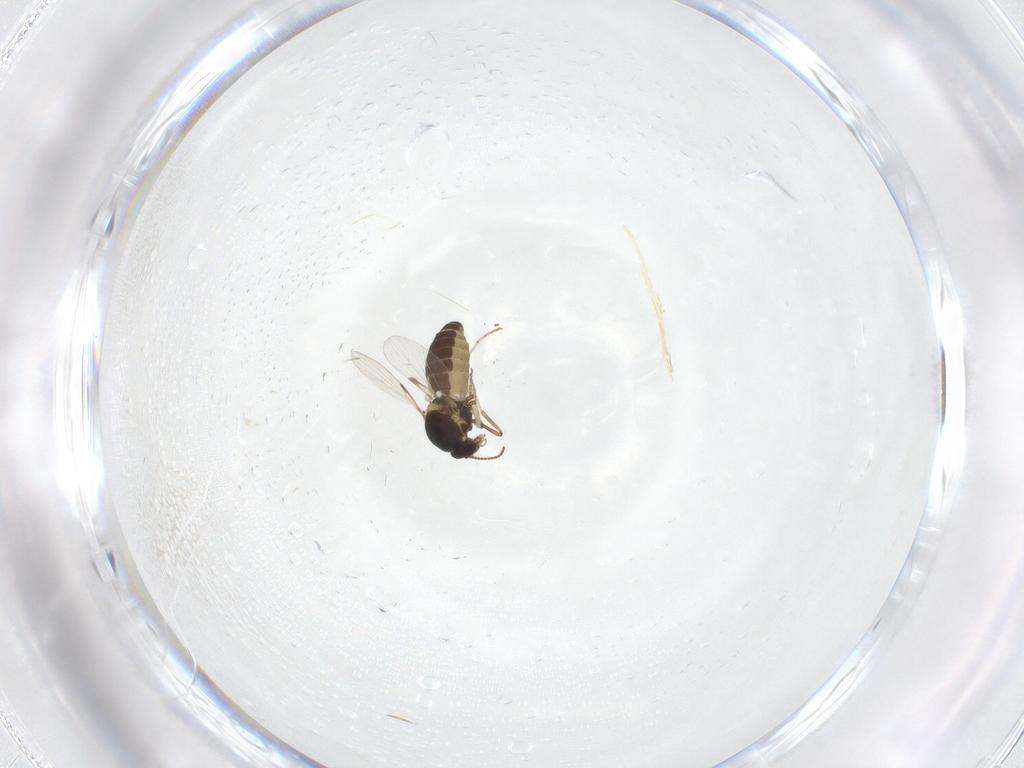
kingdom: Animalia
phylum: Arthropoda
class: Insecta
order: Diptera
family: Ceratopogonidae
